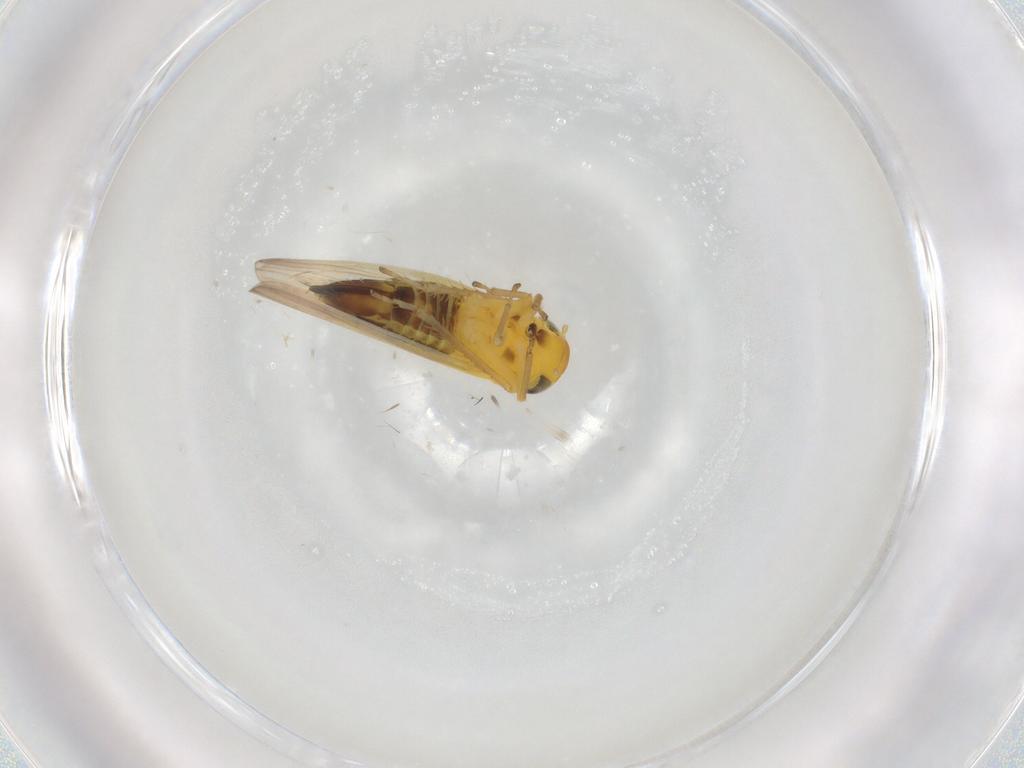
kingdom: Animalia
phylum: Arthropoda
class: Insecta
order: Hemiptera
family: Cicadellidae
